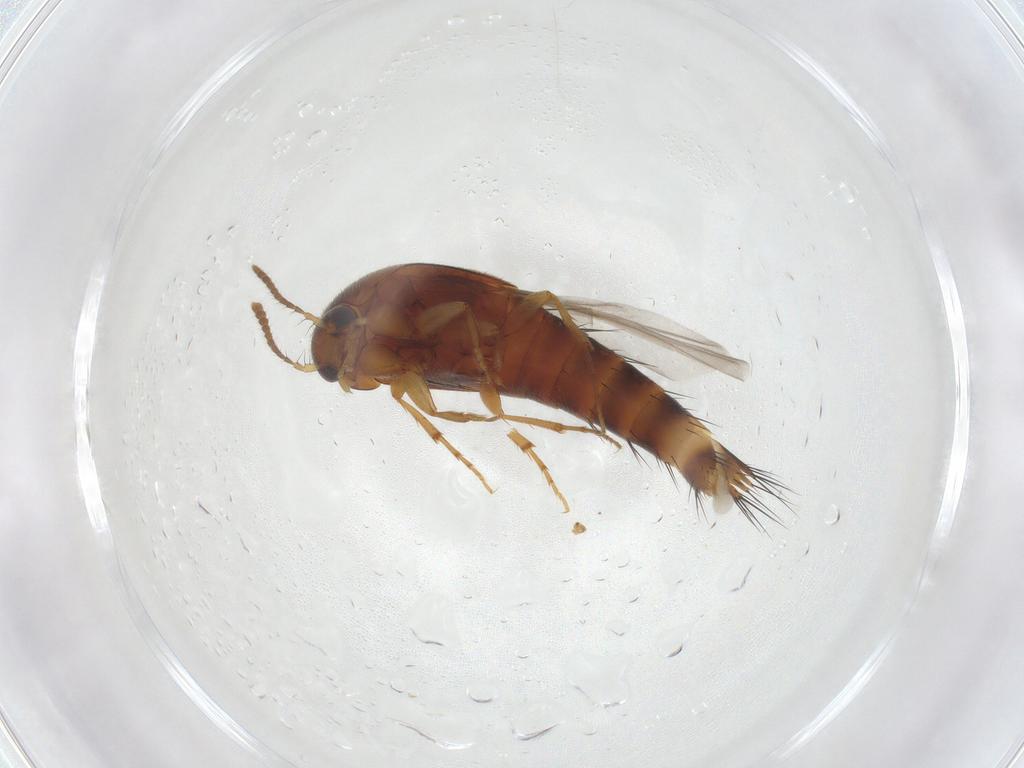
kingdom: Animalia
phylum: Arthropoda
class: Insecta
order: Coleoptera
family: Staphylinidae
